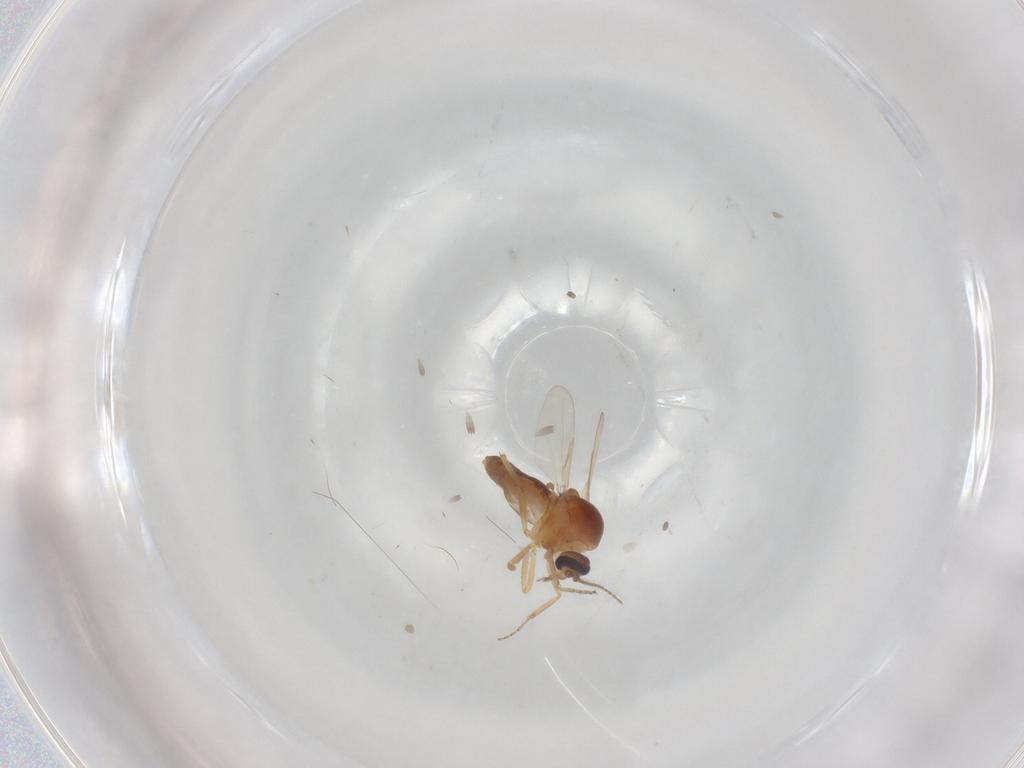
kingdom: Animalia
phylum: Arthropoda
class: Insecta
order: Diptera
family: Ceratopogonidae
